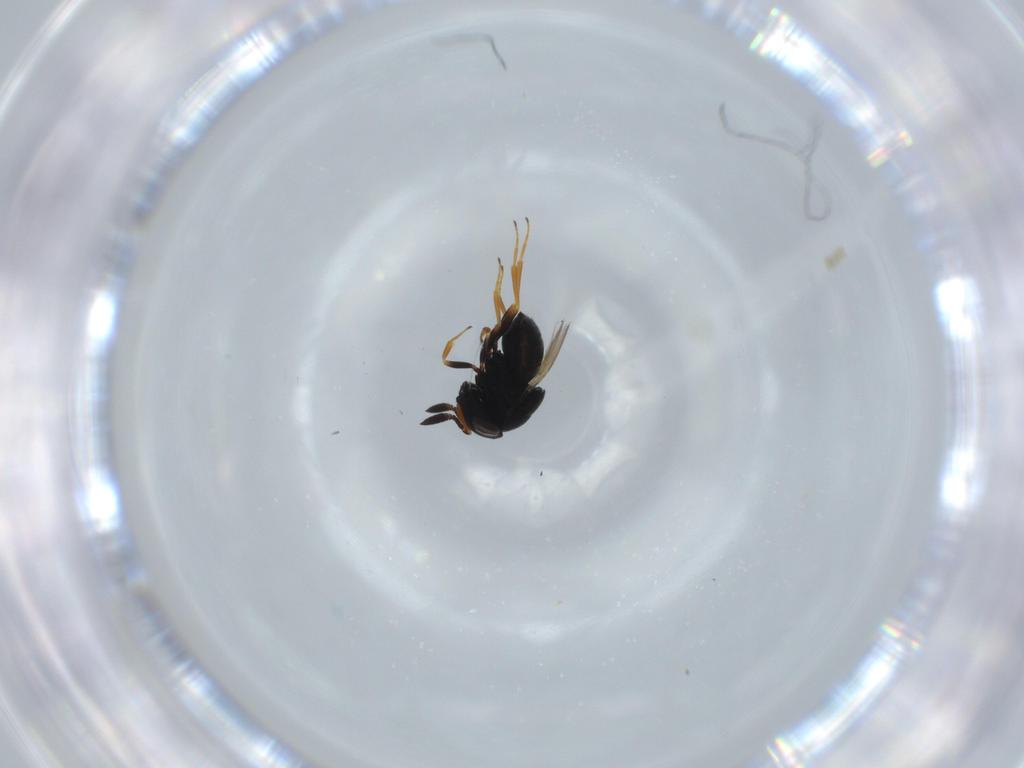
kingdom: Animalia
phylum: Arthropoda
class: Insecta
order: Hymenoptera
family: Scelionidae
